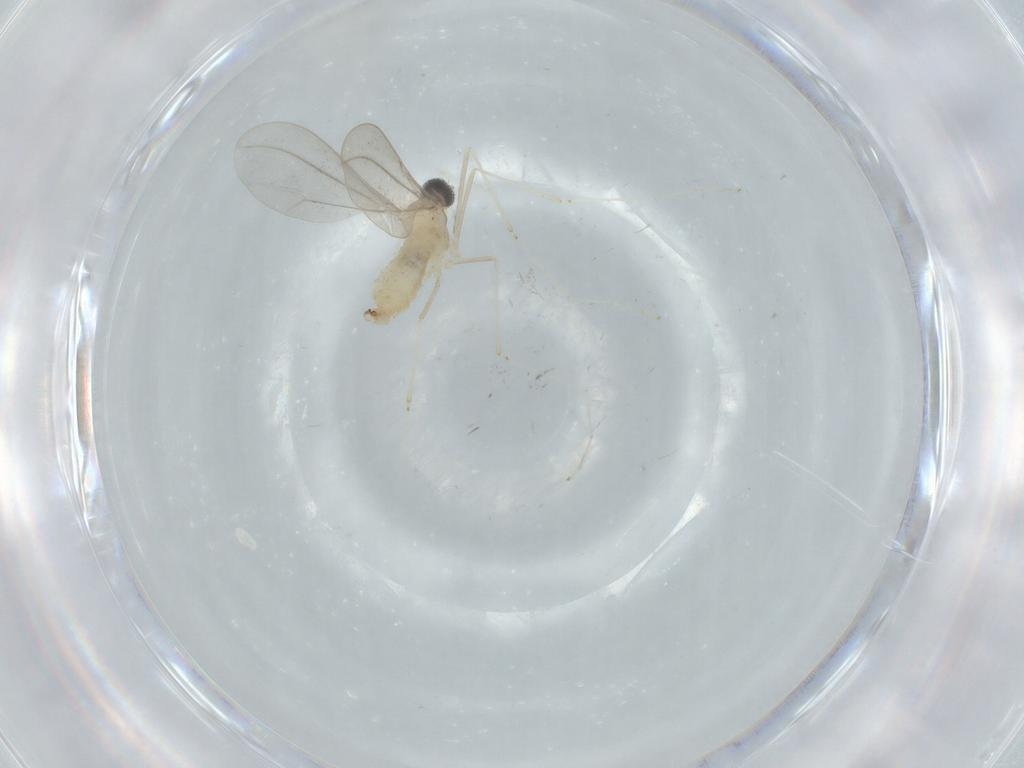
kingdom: Animalia
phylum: Arthropoda
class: Insecta
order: Diptera
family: Cecidomyiidae
